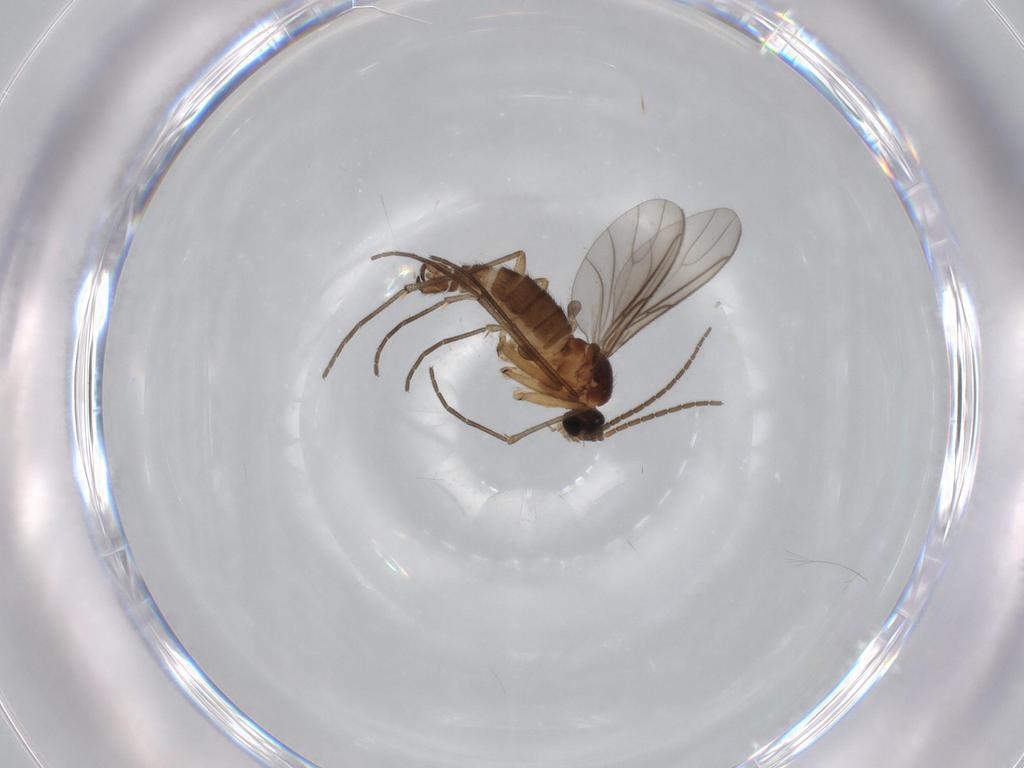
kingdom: Animalia
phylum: Arthropoda
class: Insecta
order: Diptera
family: Sciaridae
